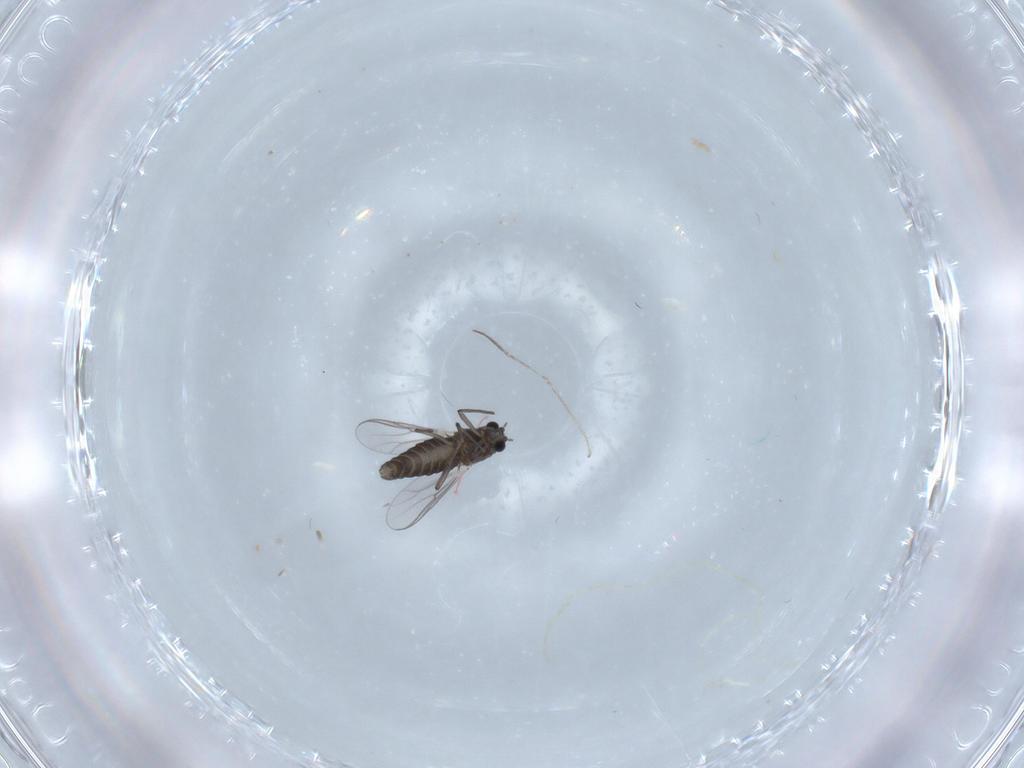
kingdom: Animalia
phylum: Arthropoda
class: Insecta
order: Diptera
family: Chironomidae
